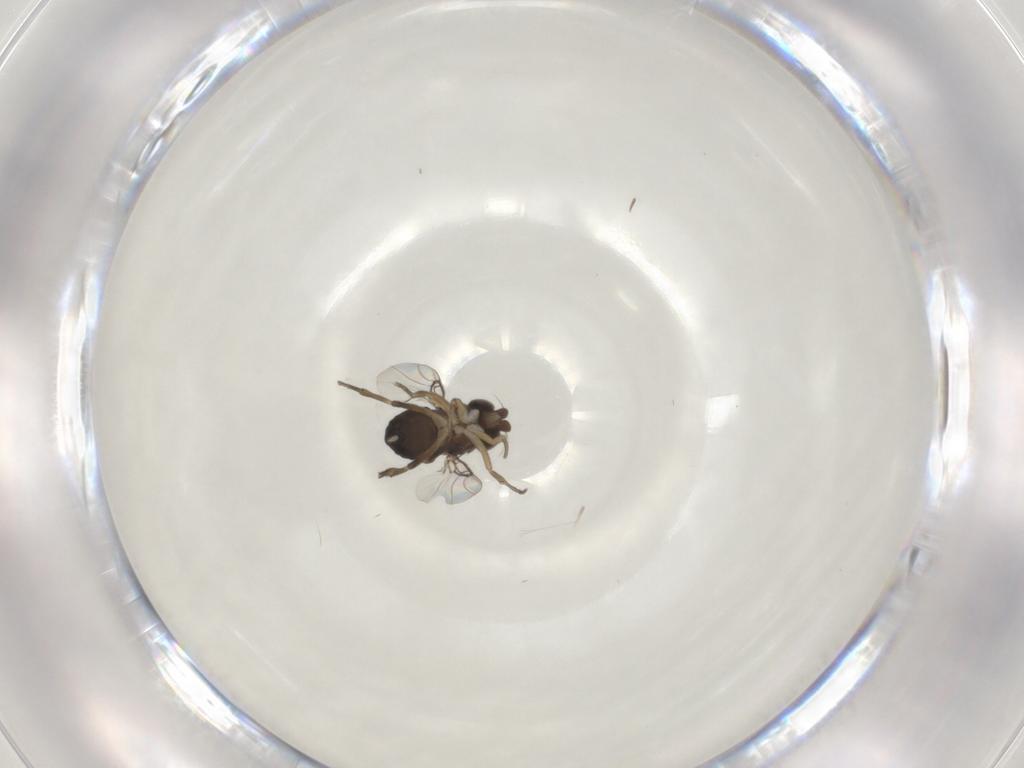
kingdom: Animalia
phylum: Arthropoda
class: Insecta
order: Diptera
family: Phoridae
